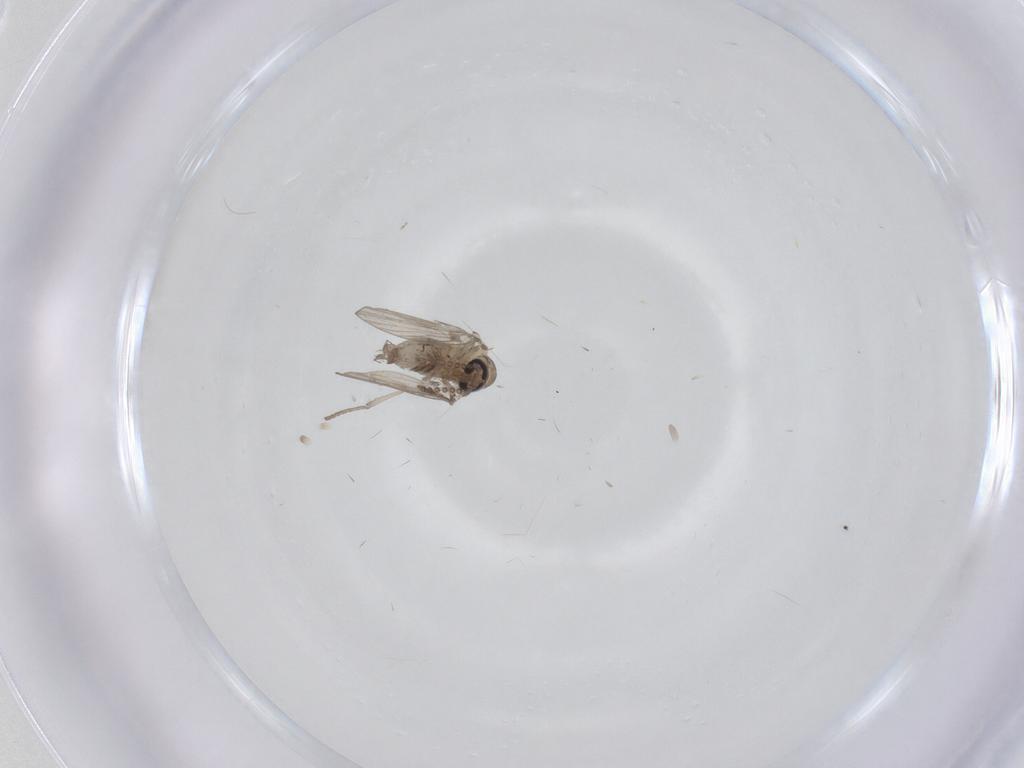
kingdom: Animalia
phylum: Arthropoda
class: Insecta
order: Diptera
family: Psychodidae
